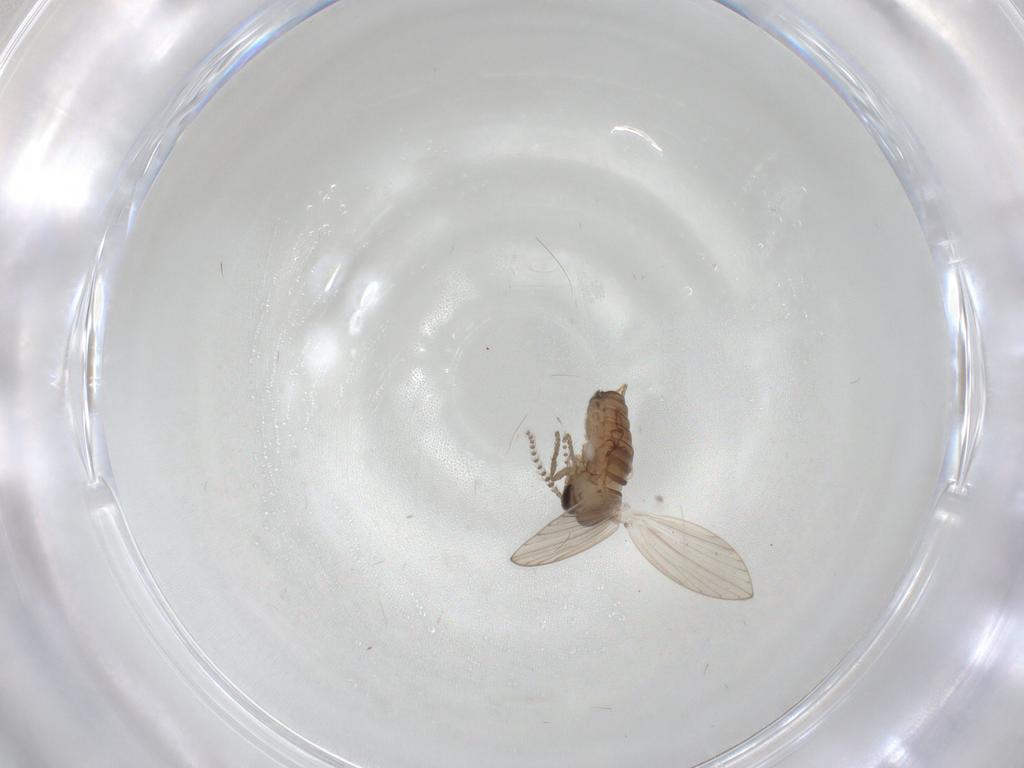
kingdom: Animalia
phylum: Arthropoda
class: Insecta
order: Diptera
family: Psychodidae
